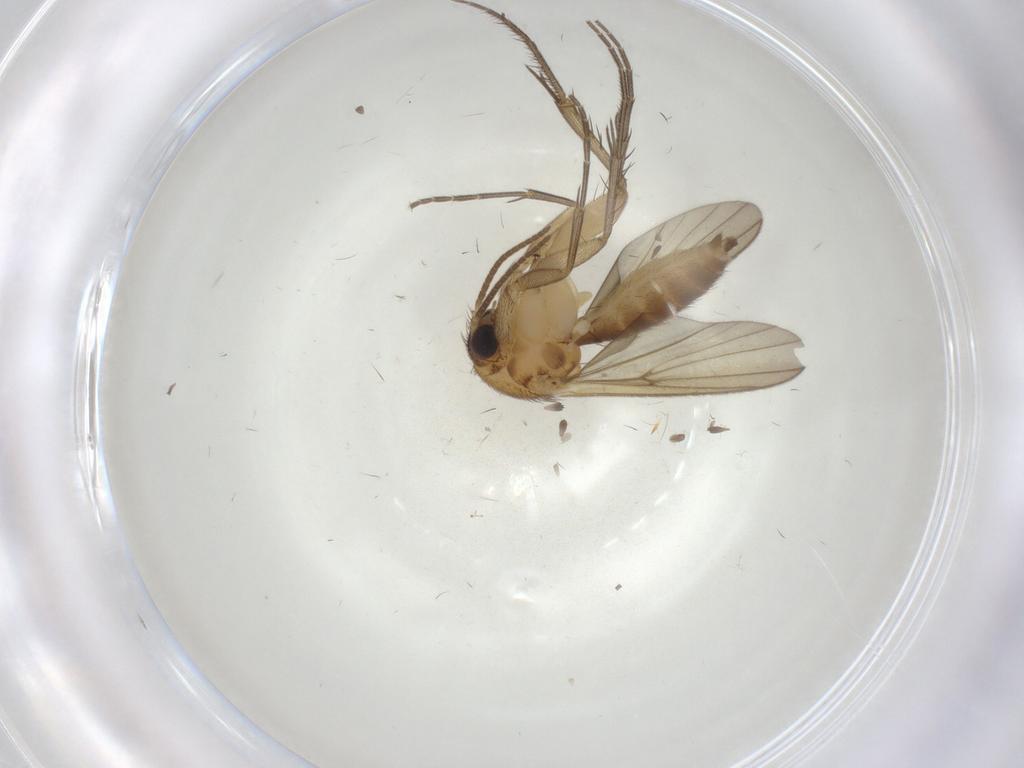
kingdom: Animalia
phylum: Arthropoda
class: Insecta
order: Diptera
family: Mycetophilidae
